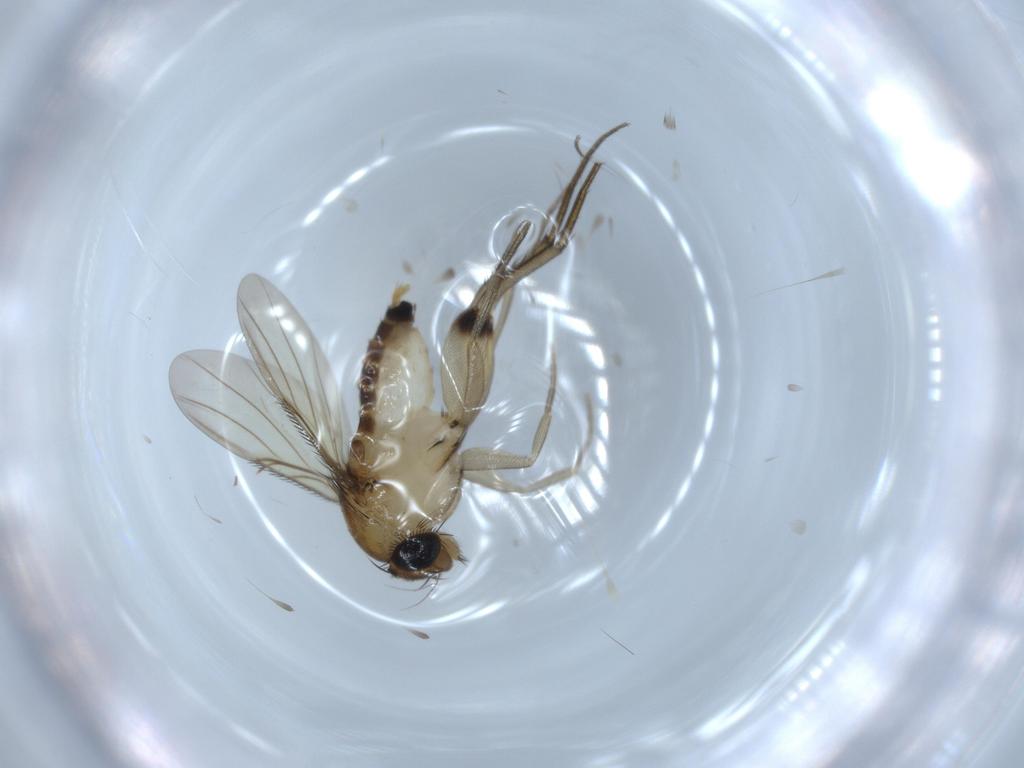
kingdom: Animalia
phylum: Arthropoda
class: Insecta
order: Diptera
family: Phoridae
